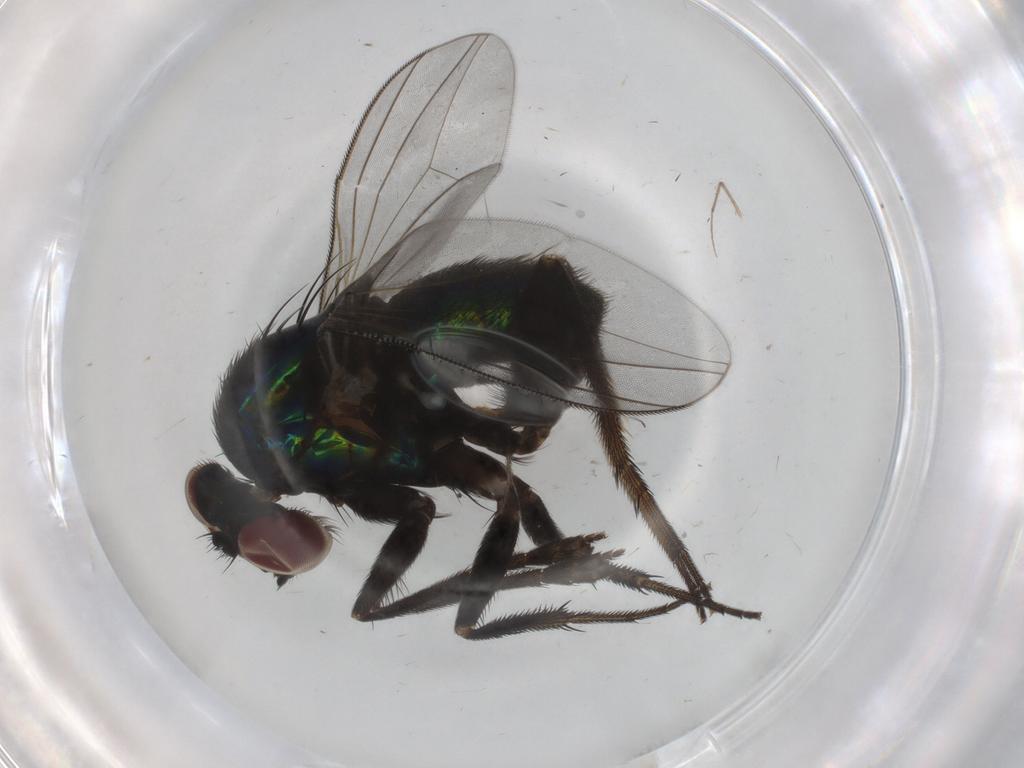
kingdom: Animalia
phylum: Arthropoda
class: Insecta
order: Diptera
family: Dolichopodidae
